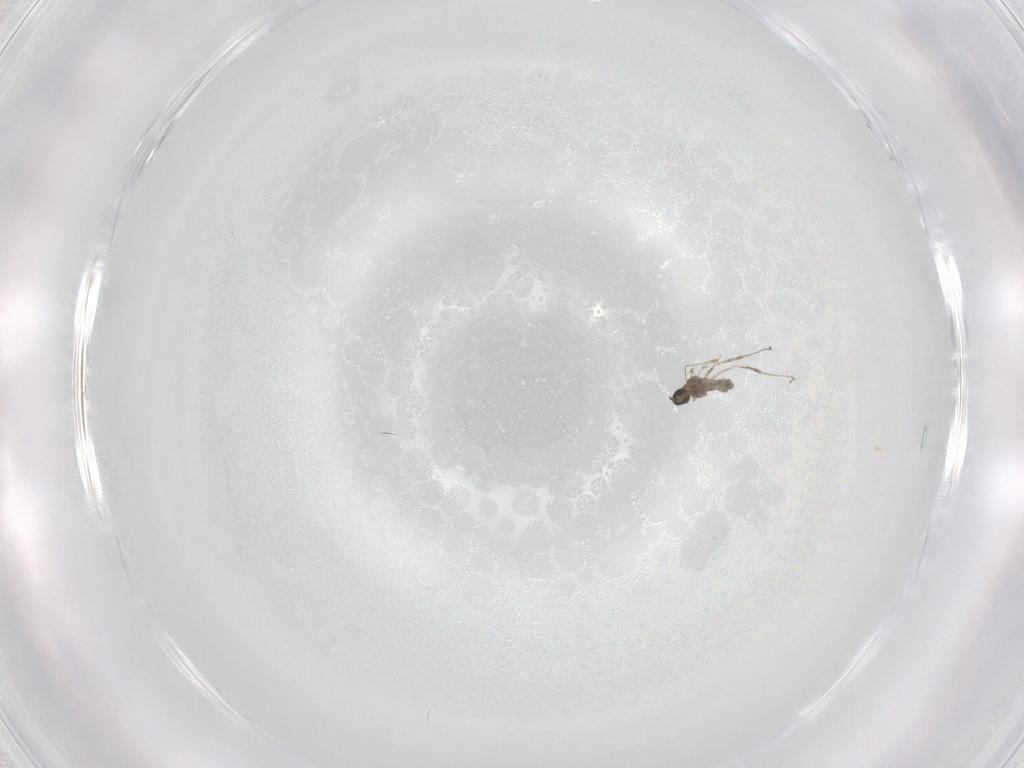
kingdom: Animalia
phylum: Arthropoda
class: Insecta
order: Diptera
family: Cecidomyiidae
